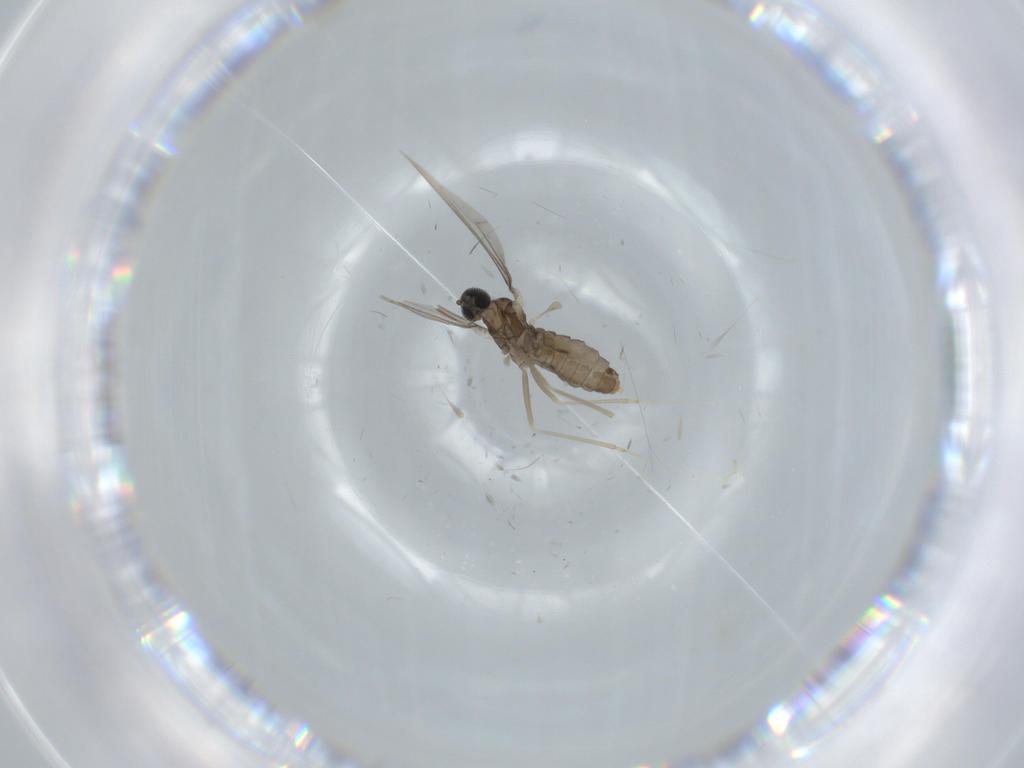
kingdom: Animalia
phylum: Arthropoda
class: Insecta
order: Diptera
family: Cecidomyiidae
